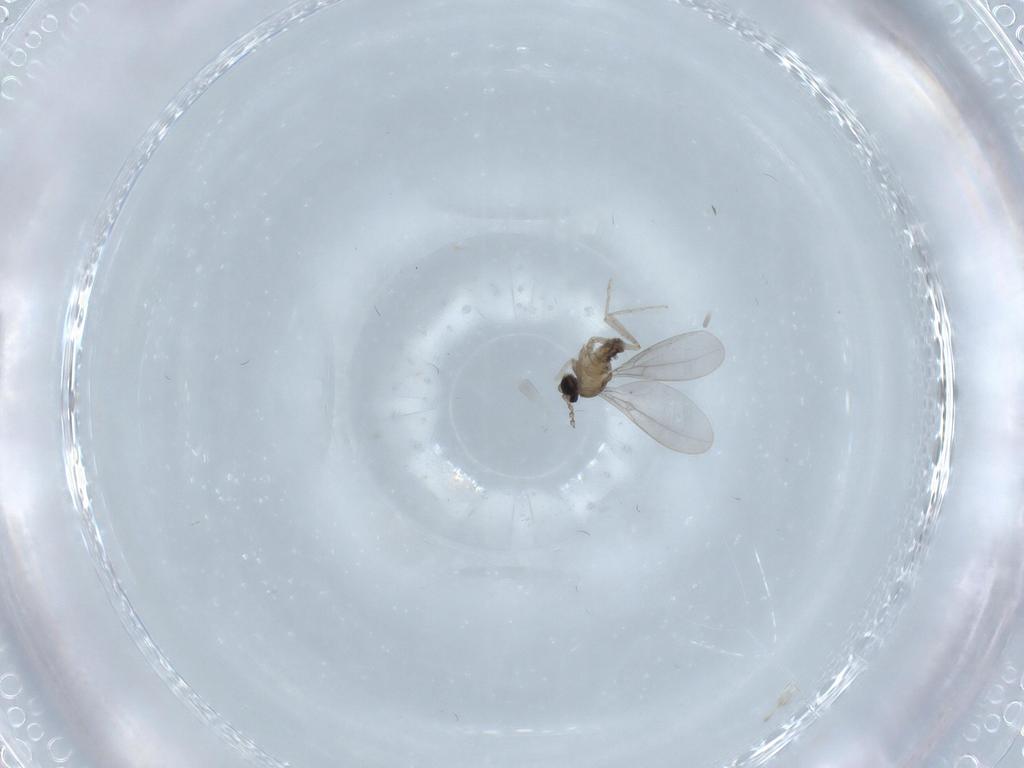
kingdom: Animalia
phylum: Arthropoda
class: Insecta
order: Diptera
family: Cecidomyiidae
